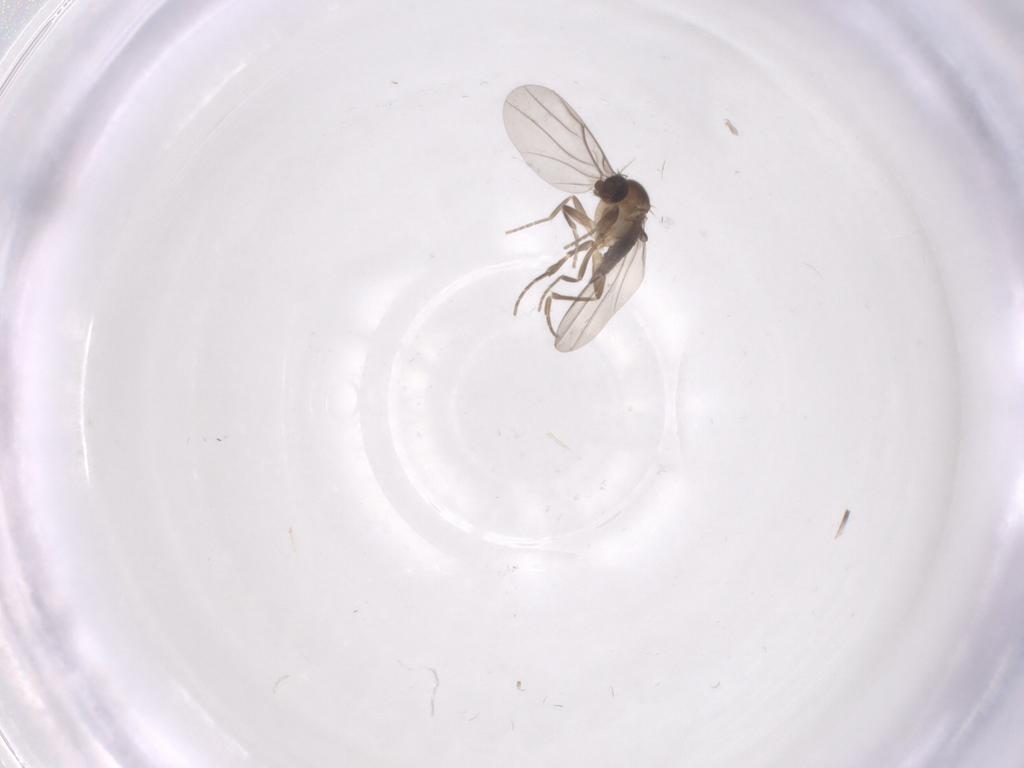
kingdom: Animalia
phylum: Arthropoda
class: Insecta
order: Diptera
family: Phoridae
